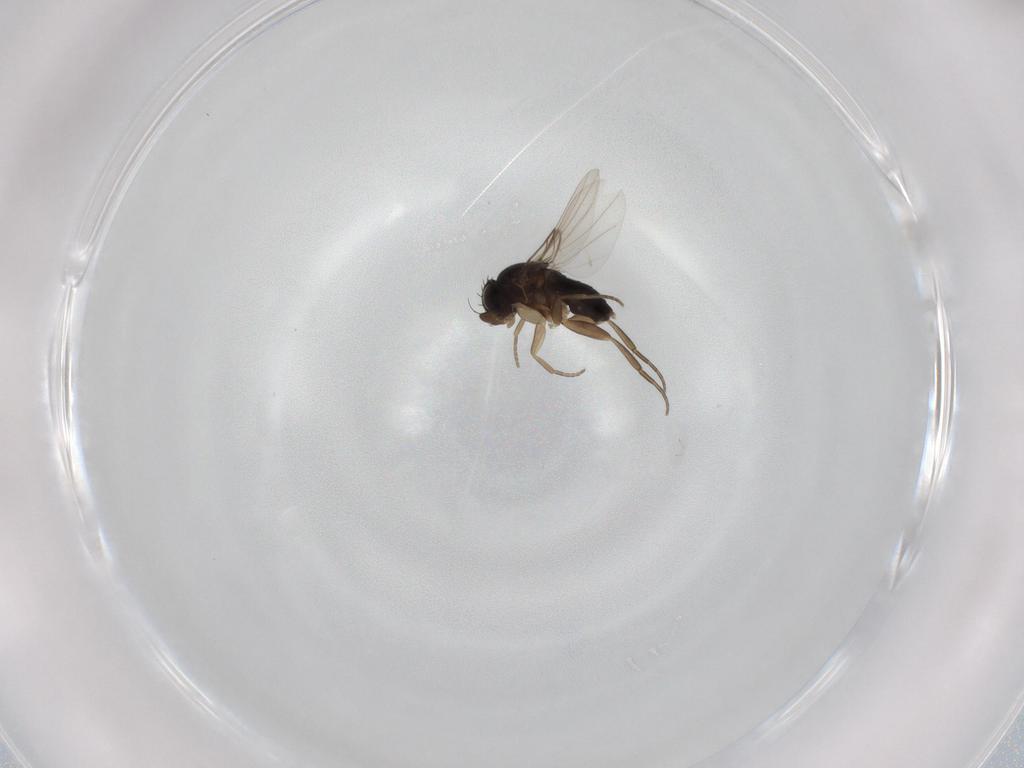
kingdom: Animalia
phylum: Arthropoda
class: Insecta
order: Diptera
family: Phoridae
